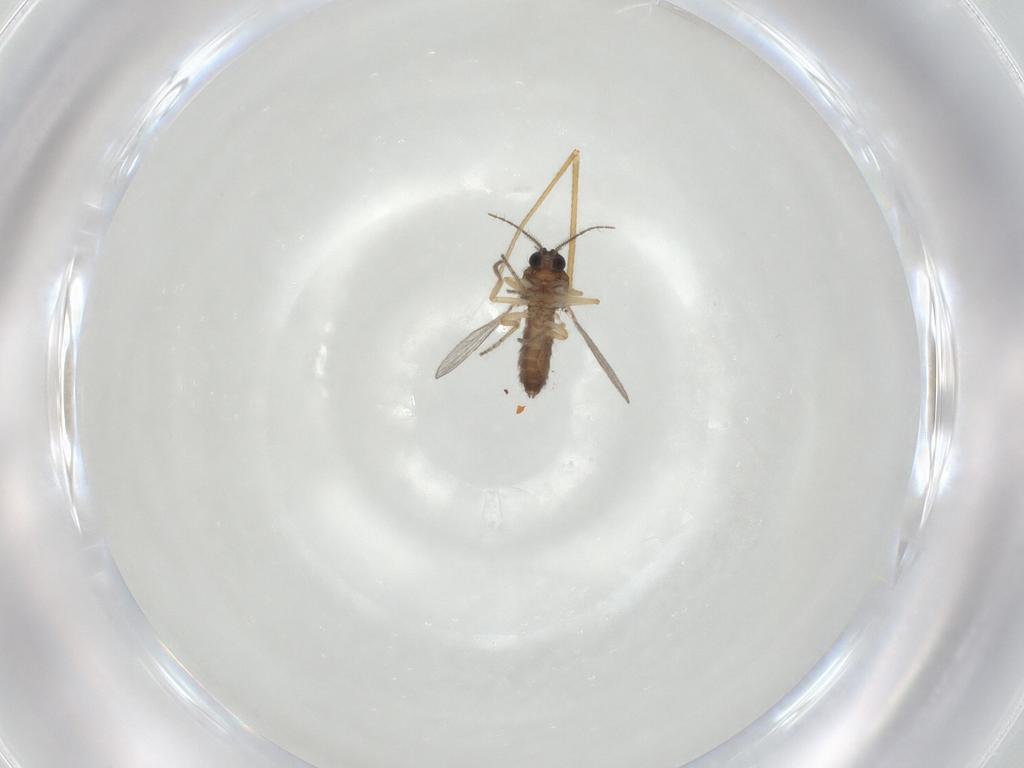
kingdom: Animalia
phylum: Arthropoda
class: Insecta
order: Diptera
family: Ceratopogonidae
